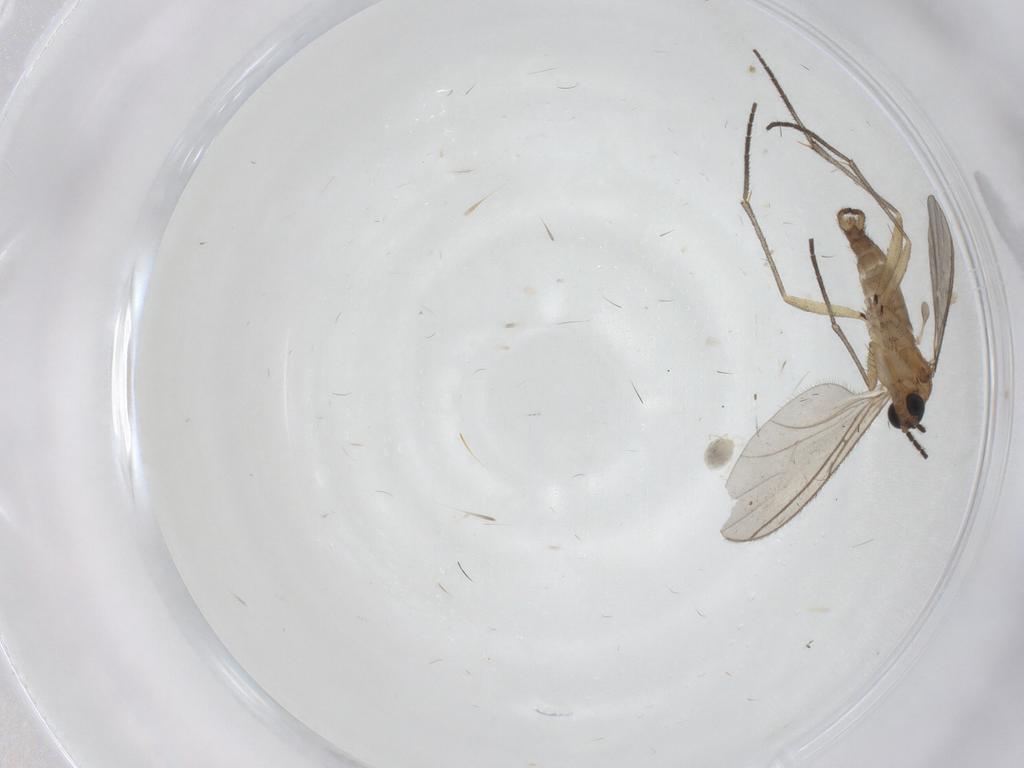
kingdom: Animalia
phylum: Arthropoda
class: Insecta
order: Diptera
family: Sciaridae
